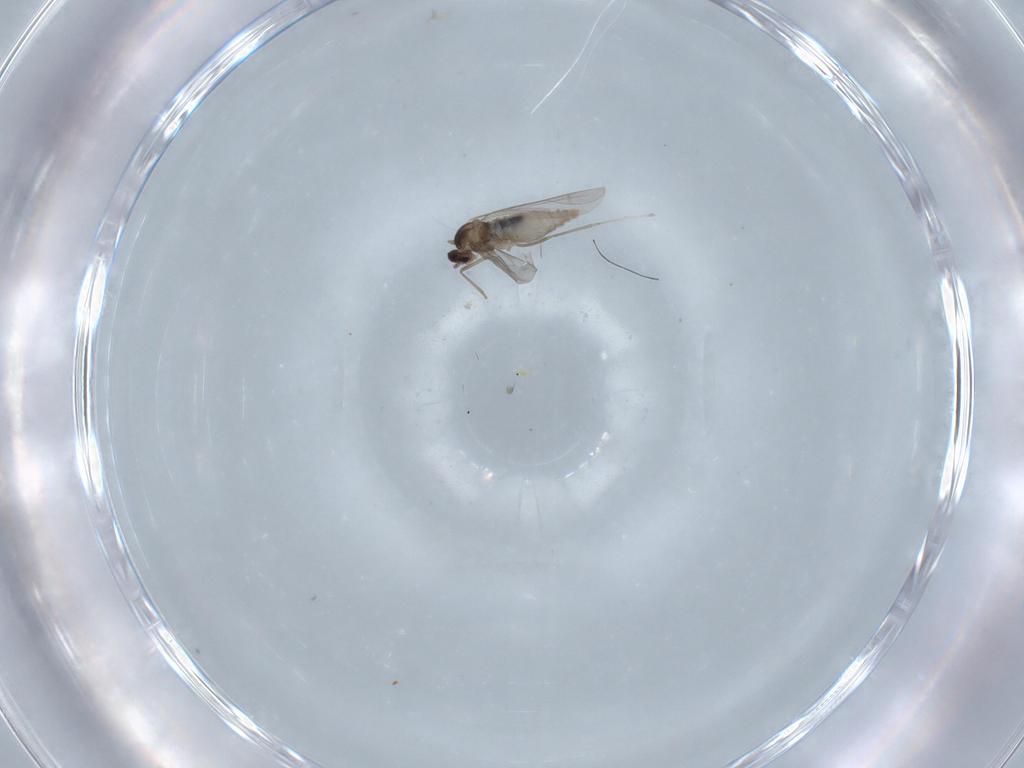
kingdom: Animalia
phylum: Arthropoda
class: Insecta
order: Diptera
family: Cecidomyiidae
